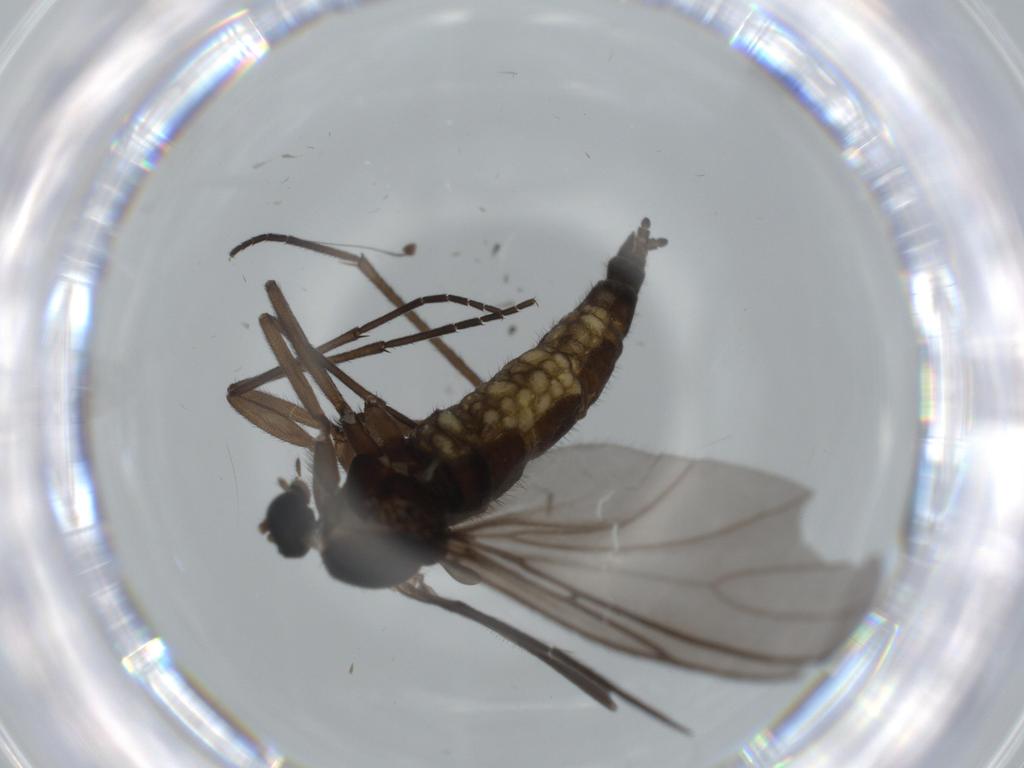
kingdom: Animalia
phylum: Arthropoda
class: Insecta
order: Diptera
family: Sciaridae
